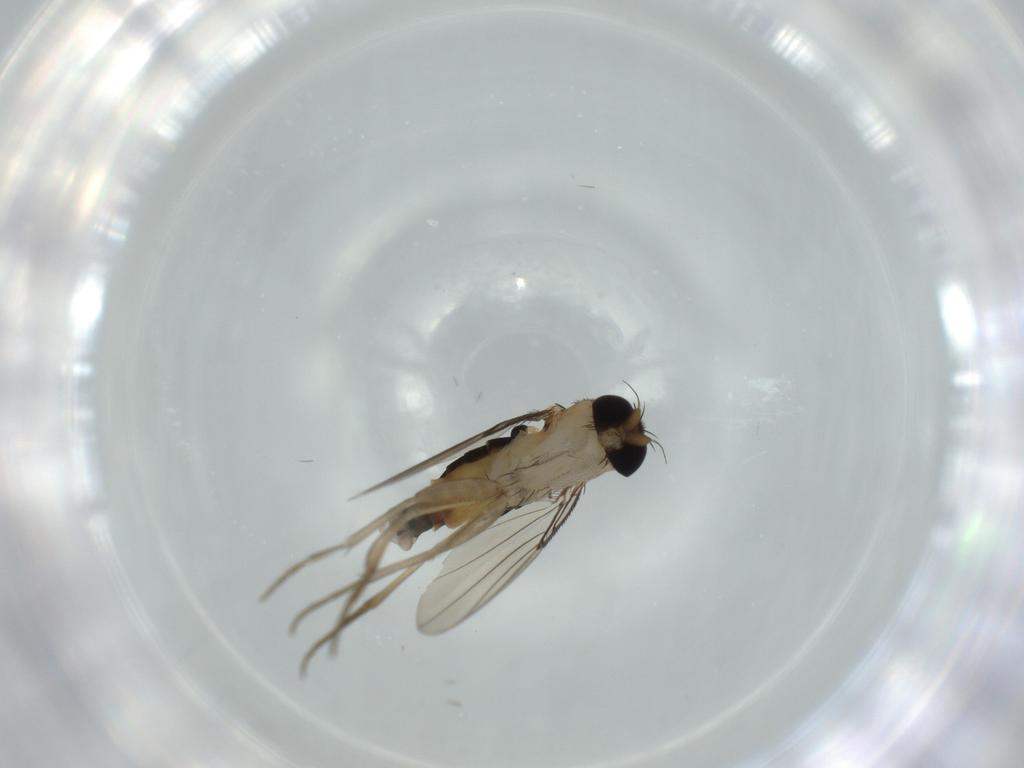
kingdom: Animalia
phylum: Arthropoda
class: Insecta
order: Diptera
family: Phoridae
